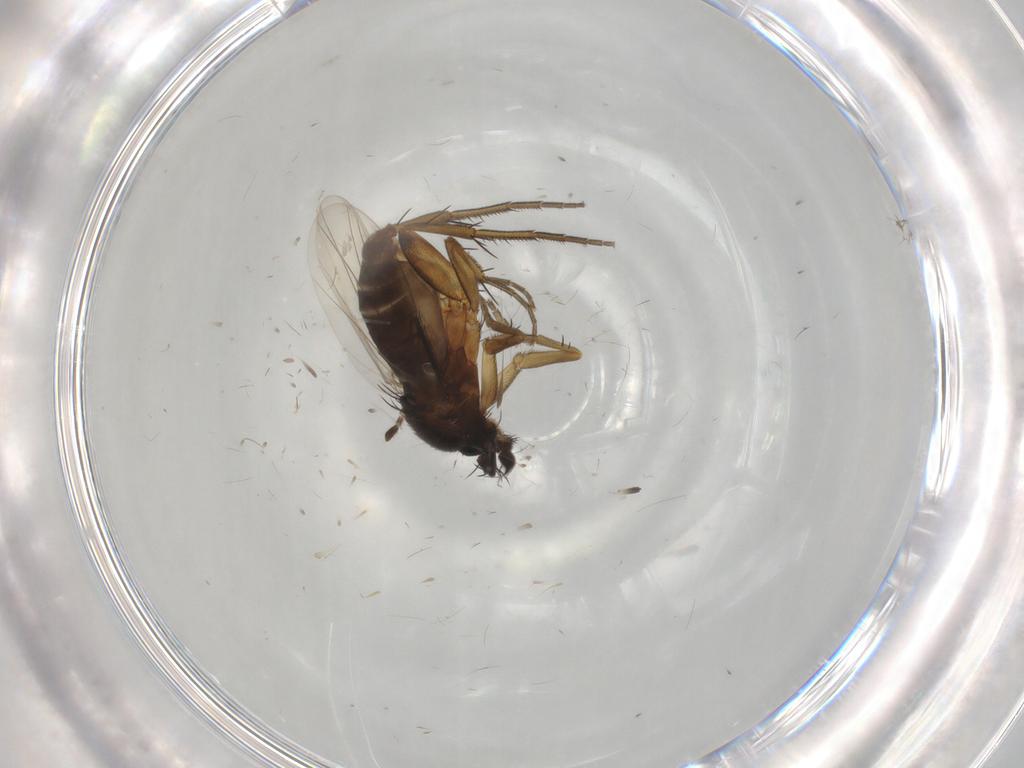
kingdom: Animalia
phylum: Arthropoda
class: Insecta
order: Diptera
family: Phoridae
